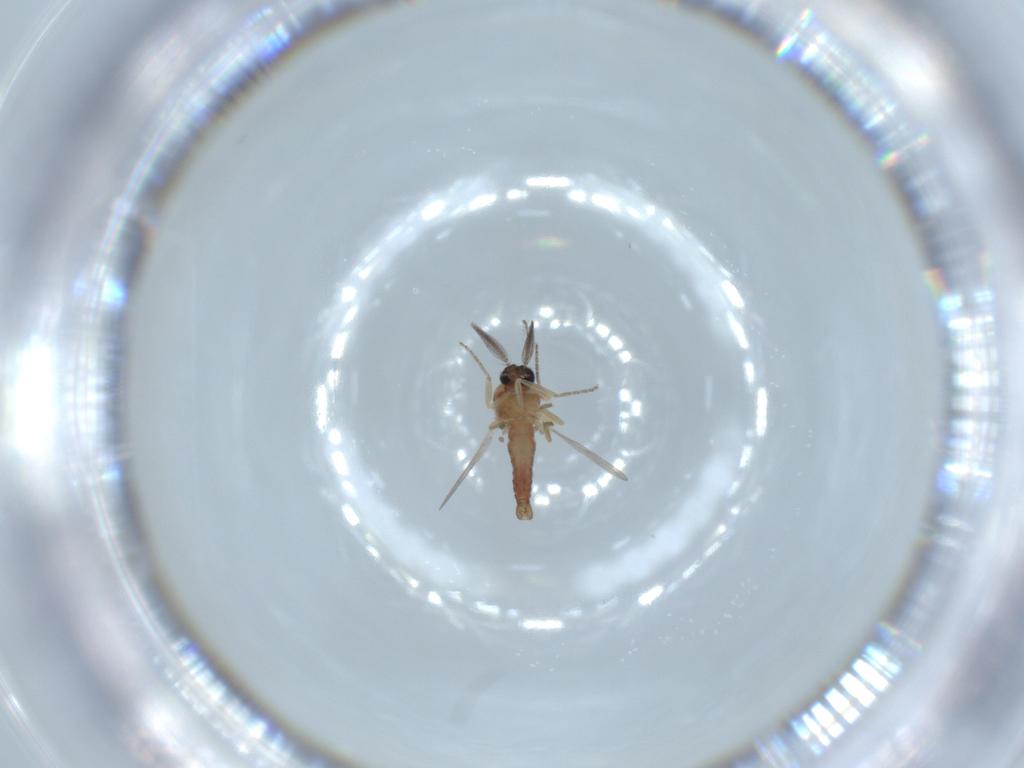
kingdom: Animalia
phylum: Arthropoda
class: Insecta
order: Diptera
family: Ceratopogonidae
